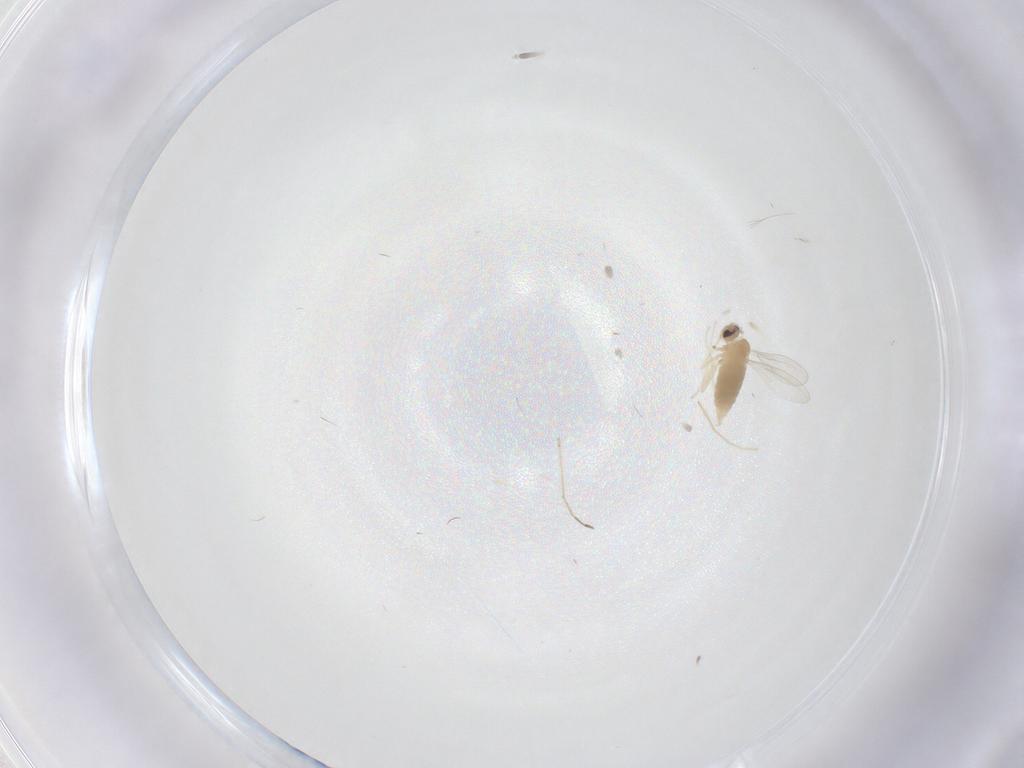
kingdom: Animalia
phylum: Arthropoda
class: Insecta
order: Diptera
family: Cecidomyiidae
